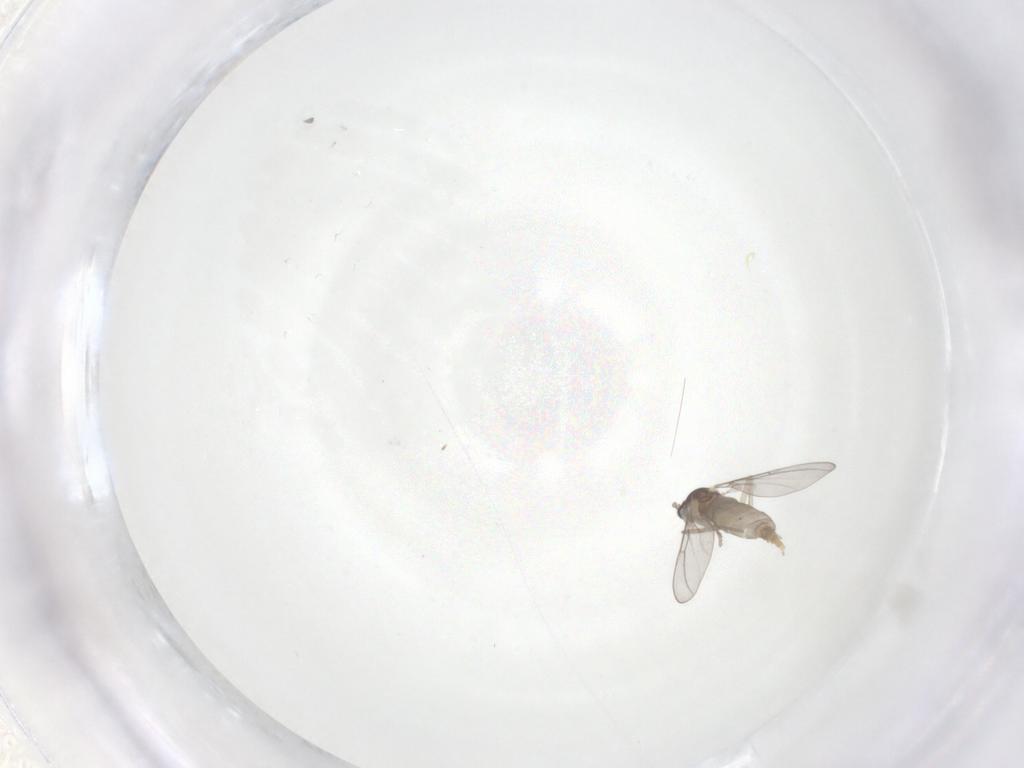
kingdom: Animalia
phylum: Arthropoda
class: Insecta
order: Diptera
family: Cecidomyiidae
